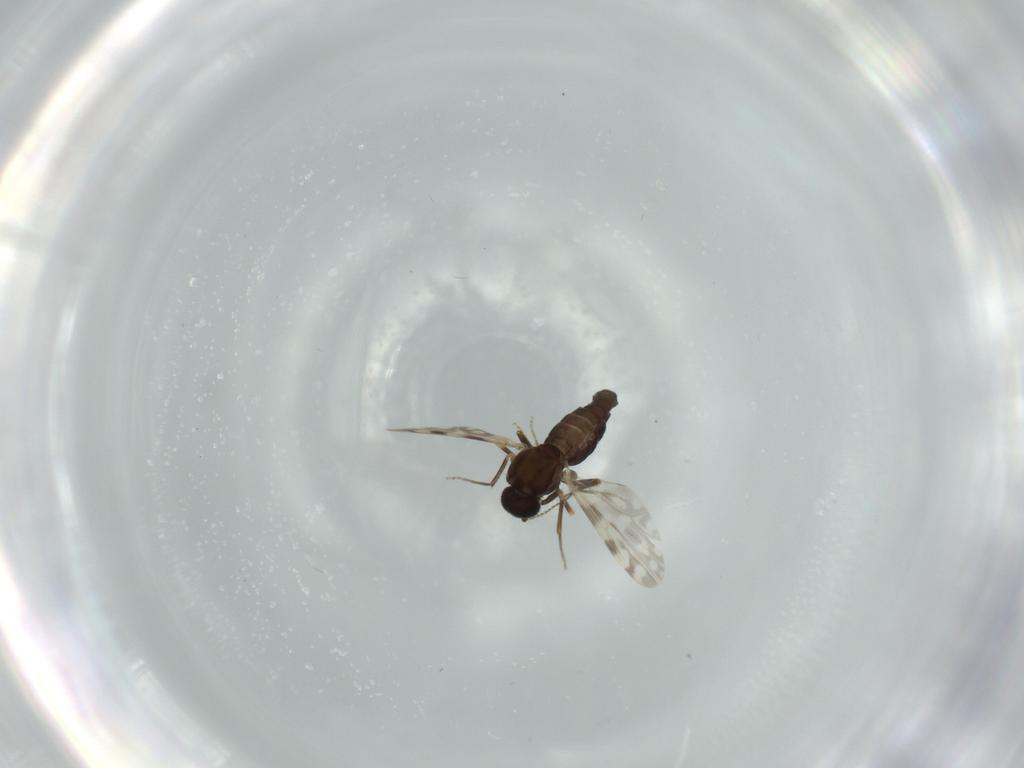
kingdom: Animalia
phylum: Arthropoda
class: Insecta
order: Diptera
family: Ceratopogonidae
